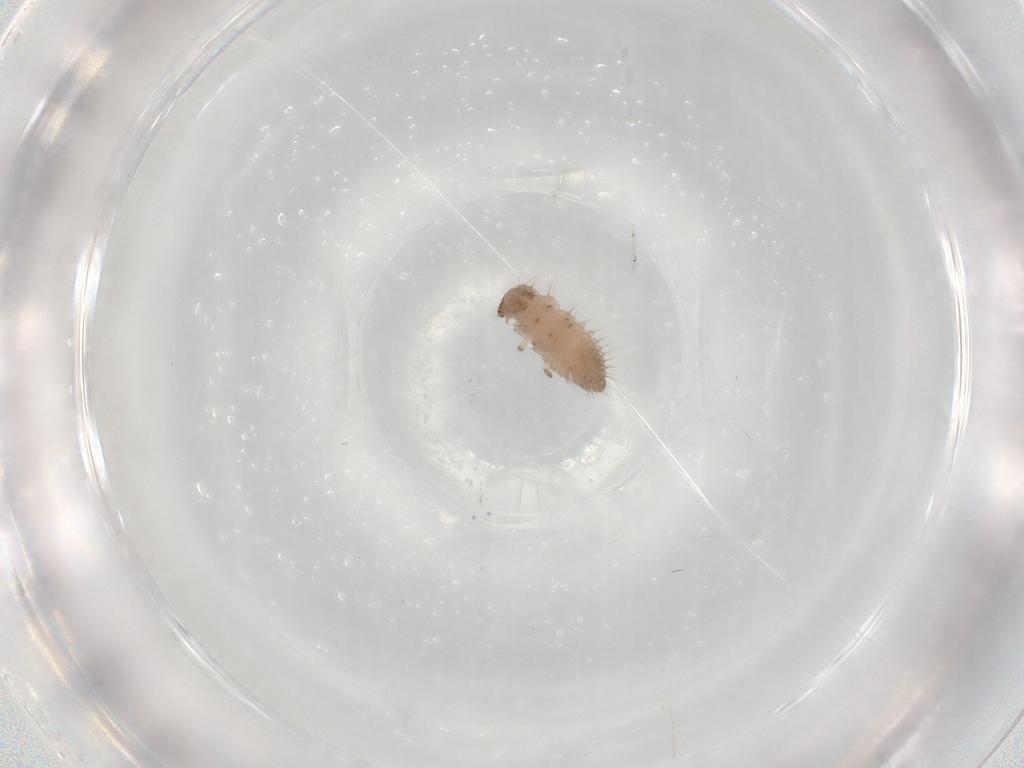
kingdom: Animalia
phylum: Arthropoda
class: Insecta
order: Coleoptera
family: Coccinellidae
